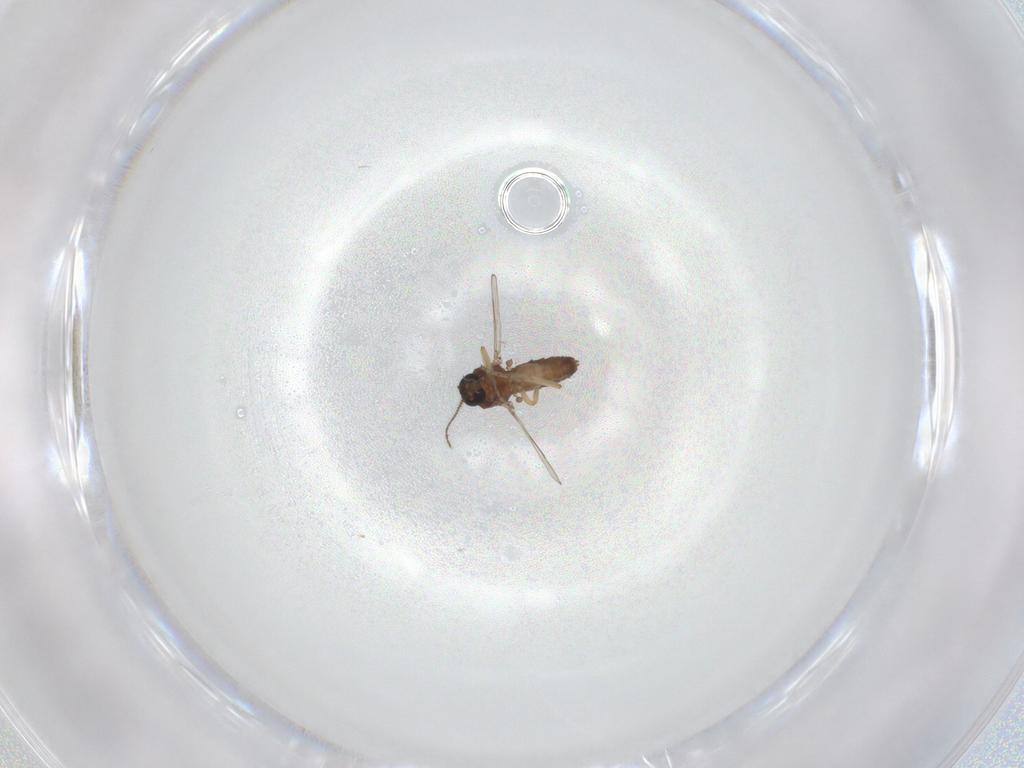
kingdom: Animalia
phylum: Arthropoda
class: Insecta
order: Diptera
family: Ceratopogonidae
